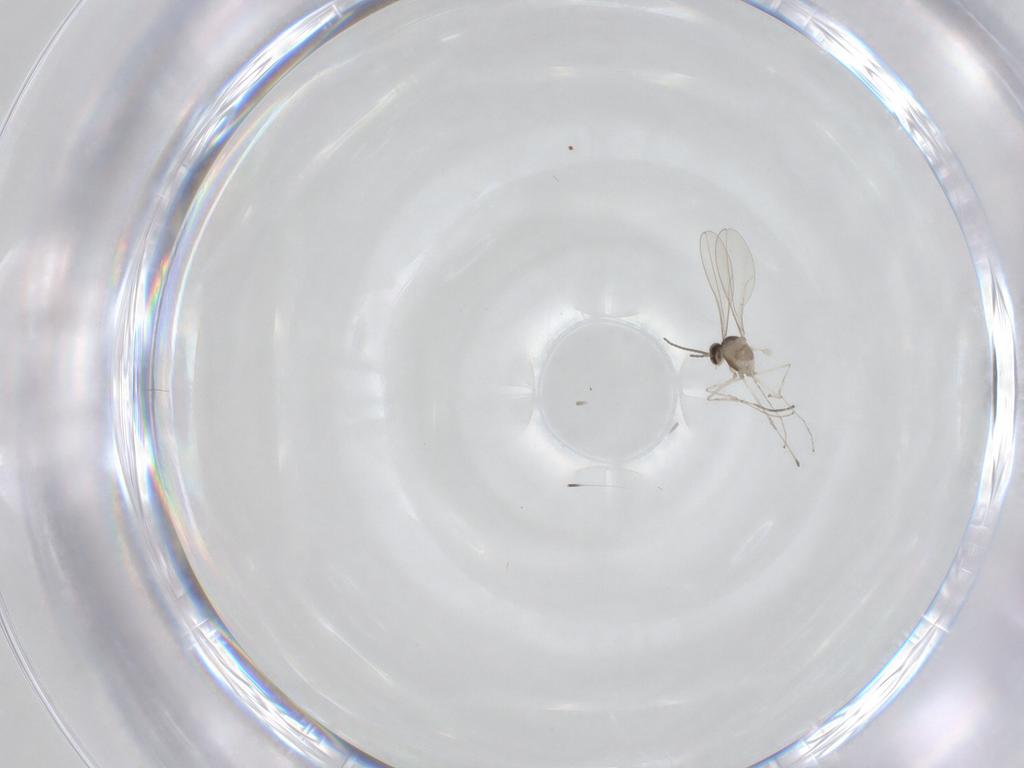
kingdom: Animalia
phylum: Arthropoda
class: Insecta
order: Diptera
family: Cecidomyiidae
